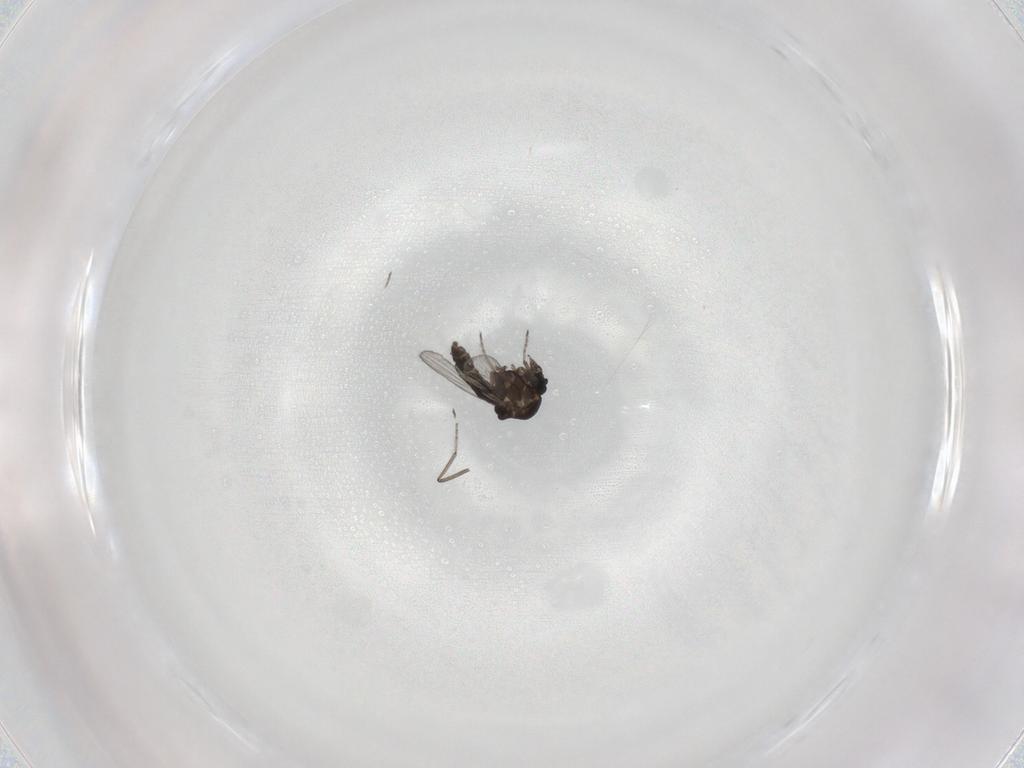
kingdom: Animalia
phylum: Arthropoda
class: Insecta
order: Diptera
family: Ceratopogonidae
